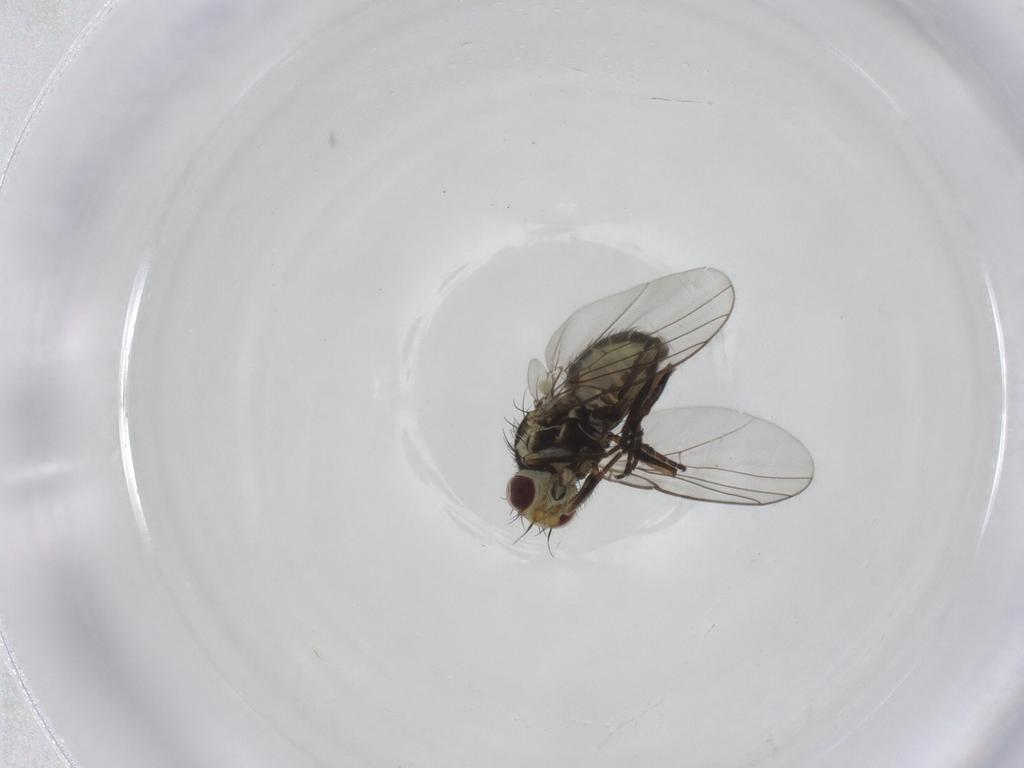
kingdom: Animalia
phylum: Arthropoda
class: Insecta
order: Diptera
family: Agromyzidae
